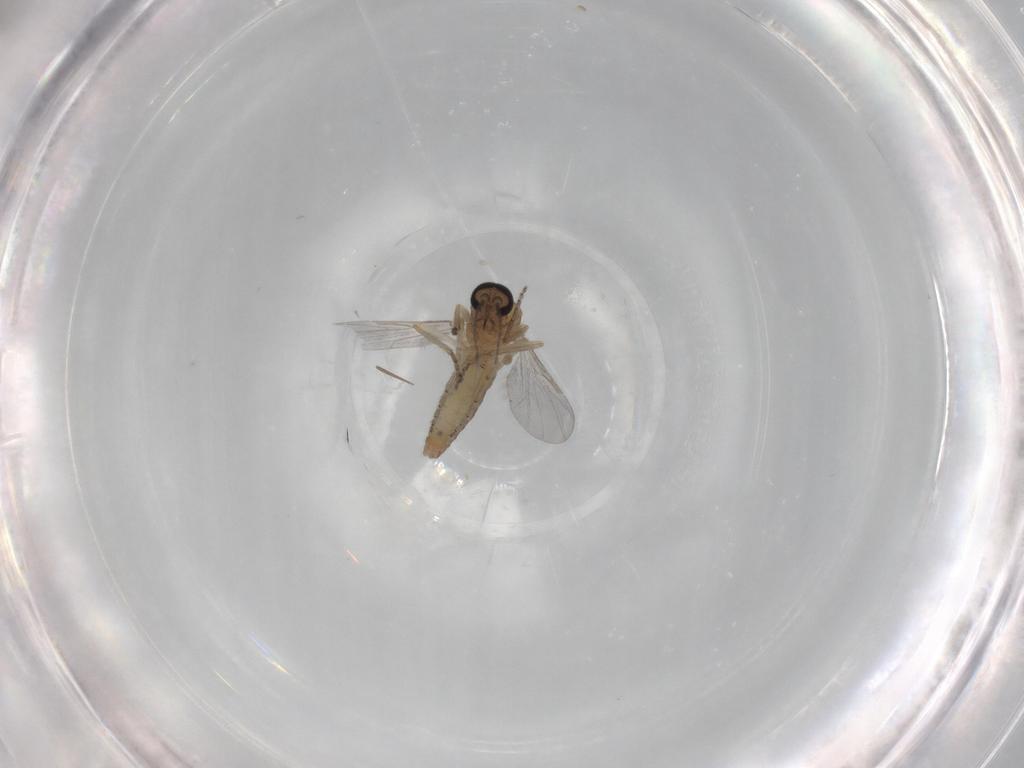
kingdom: Animalia
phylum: Arthropoda
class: Insecta
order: Diptera
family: Ceratopogonidae
